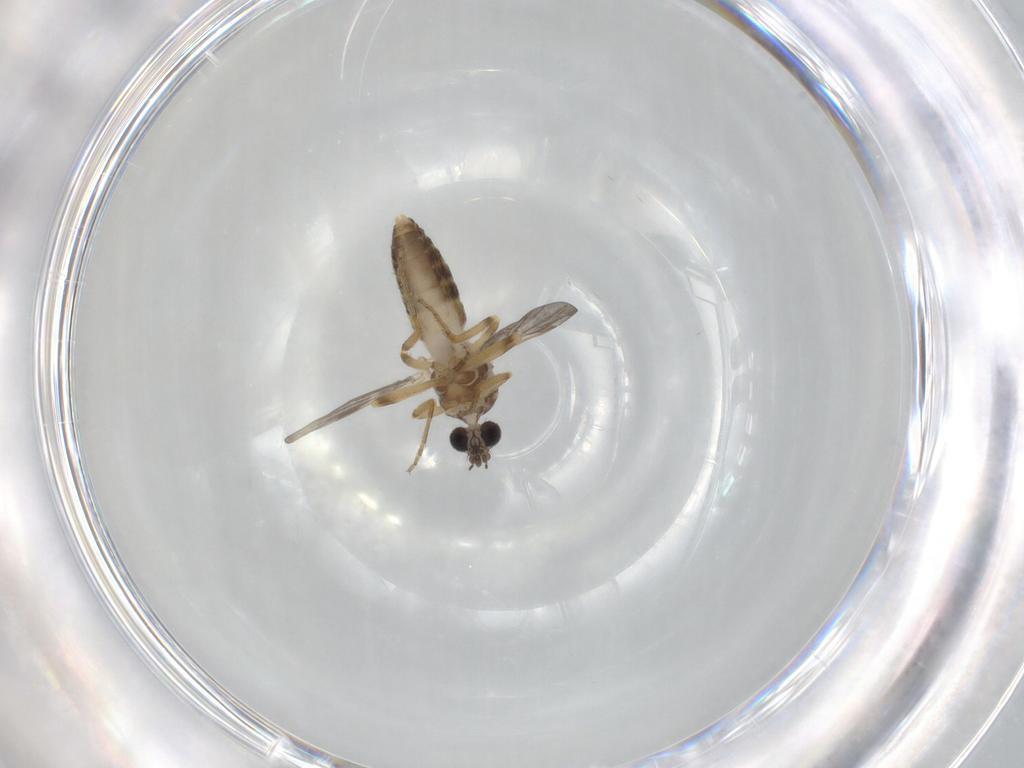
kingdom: Animalia
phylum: Arthropoda
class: Insecta
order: Diptera
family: Ceratopogonidae
